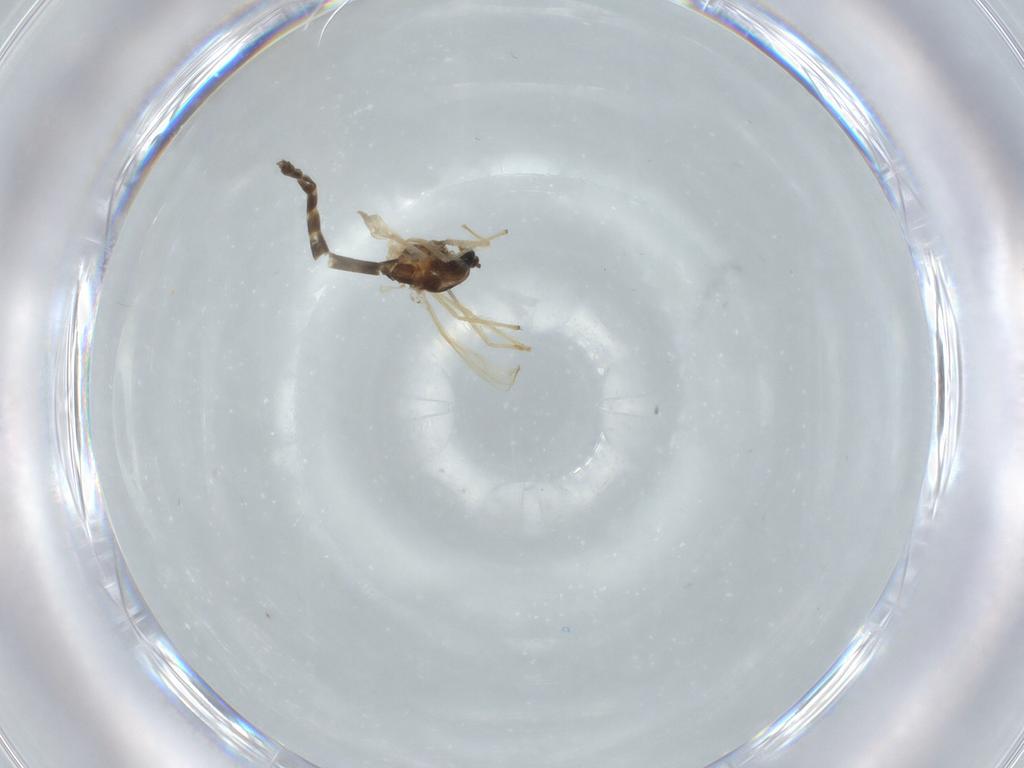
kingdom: Animalia
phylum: Arthropoda
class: Insecta
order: Diptera
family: Chironomidae
